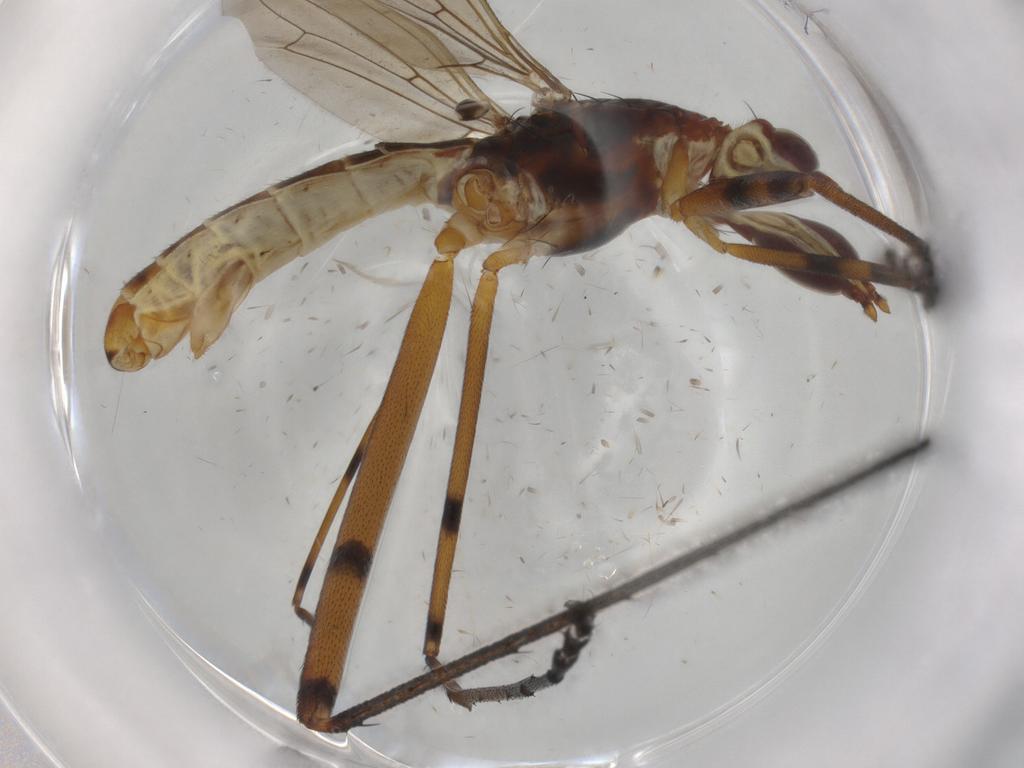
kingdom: Animalia
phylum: Arthropoda
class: Insecta
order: Diptera
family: Neriidae
